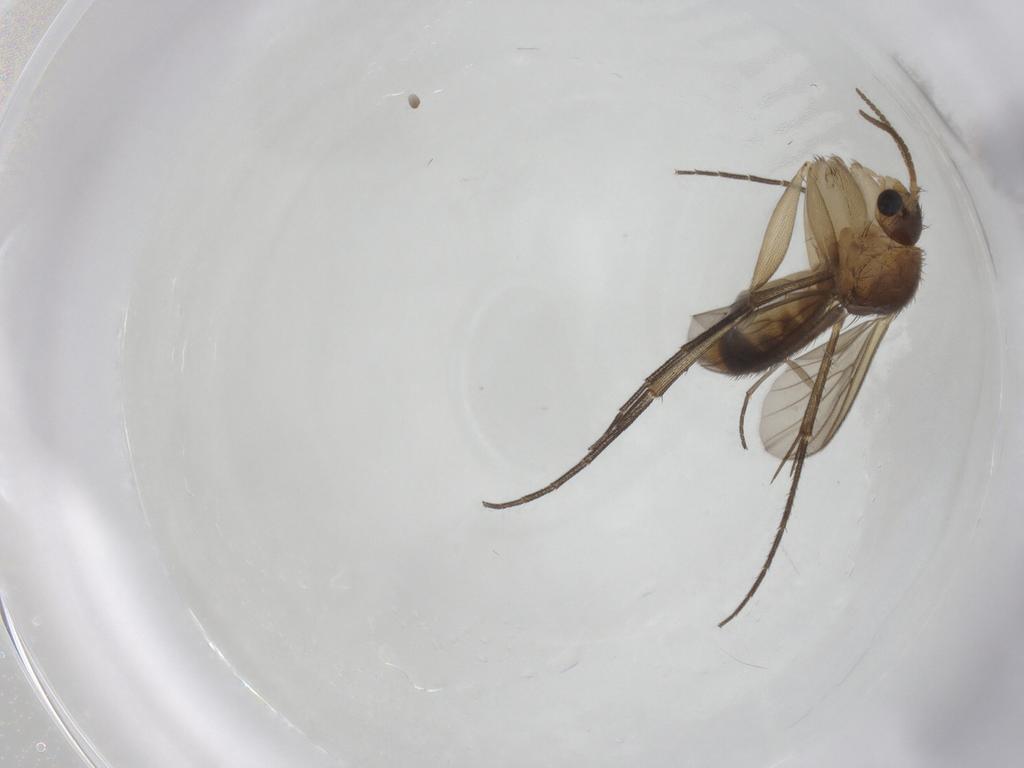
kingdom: Animalia
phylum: Arthropoda
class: Insecta
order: Diptera
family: Sciaridae
